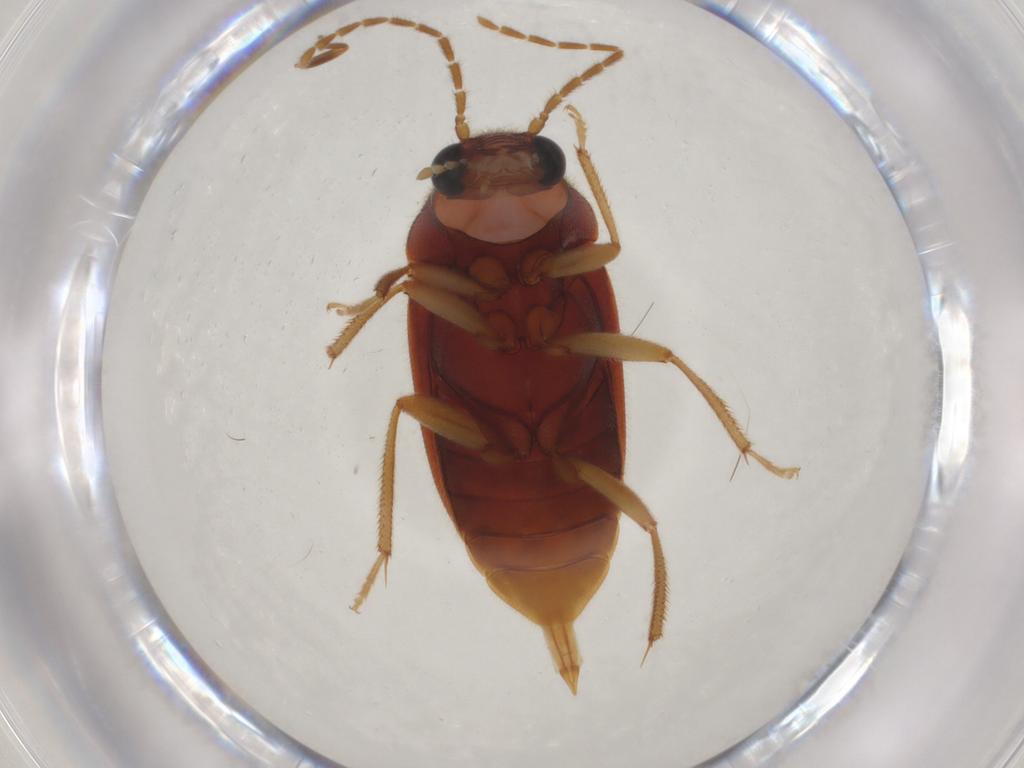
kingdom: Animalia
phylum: Arthropoda
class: Insecta
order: Coleoptera
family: Ptilodactylidae
